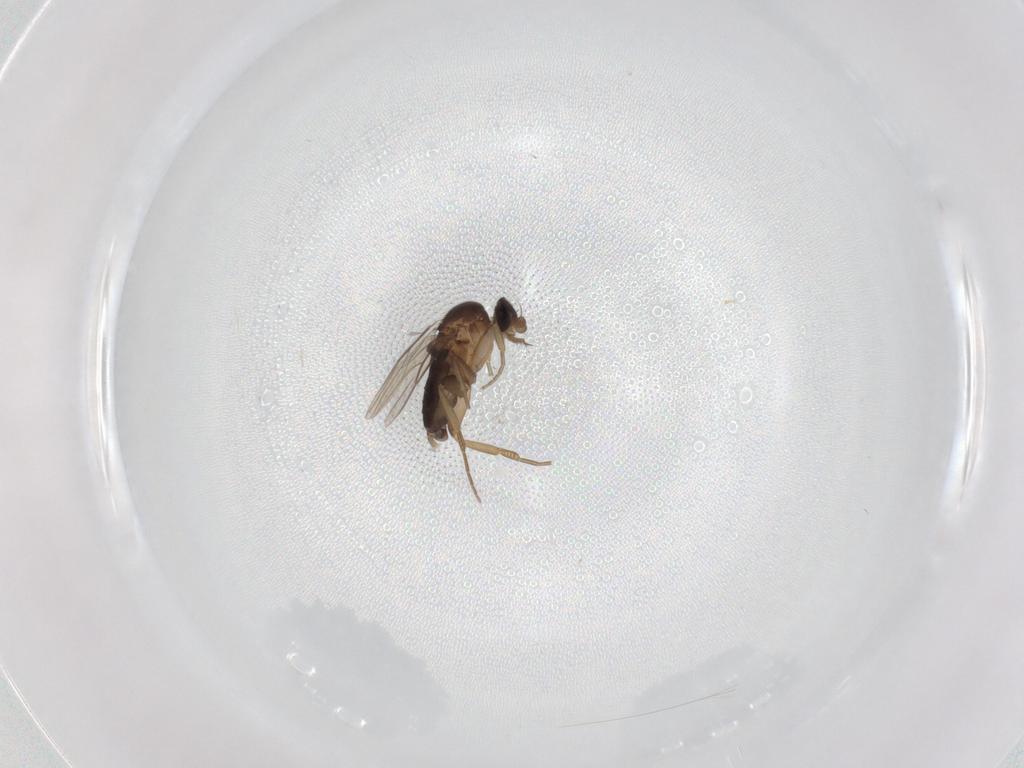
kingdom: Animalia
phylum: Arthropoda
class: Insecta
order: Diptera
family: Phoridae
